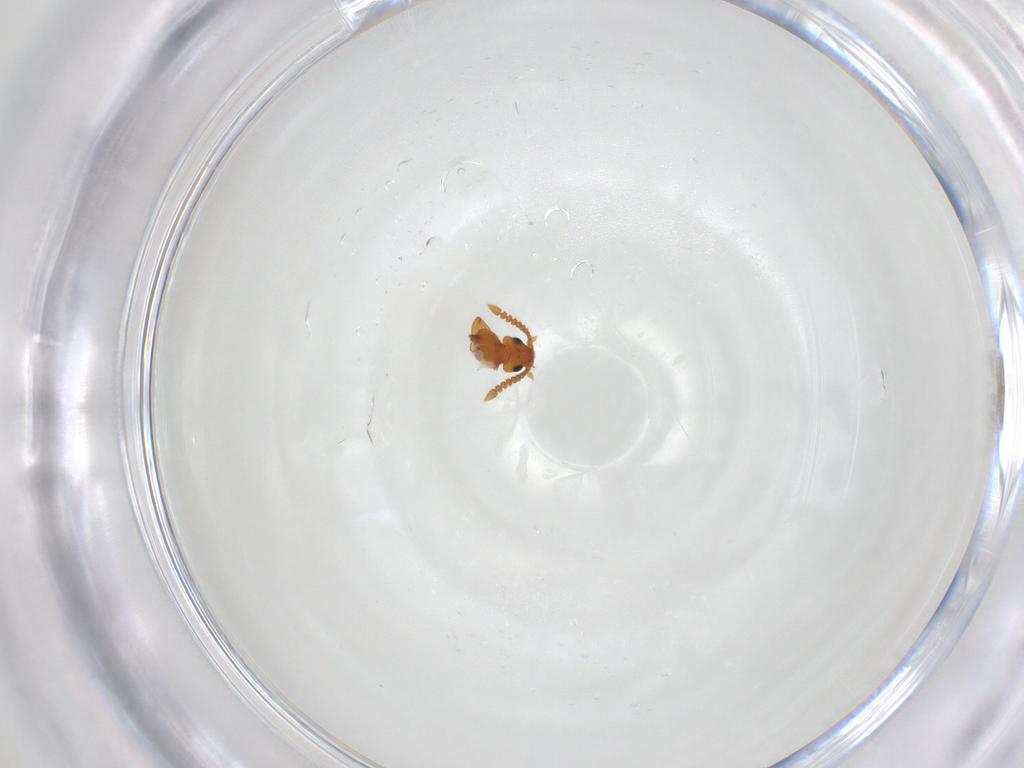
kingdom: Animalia
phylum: Arthropoda
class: Insecta
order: Coleoptera
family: Ptilodactylidae
